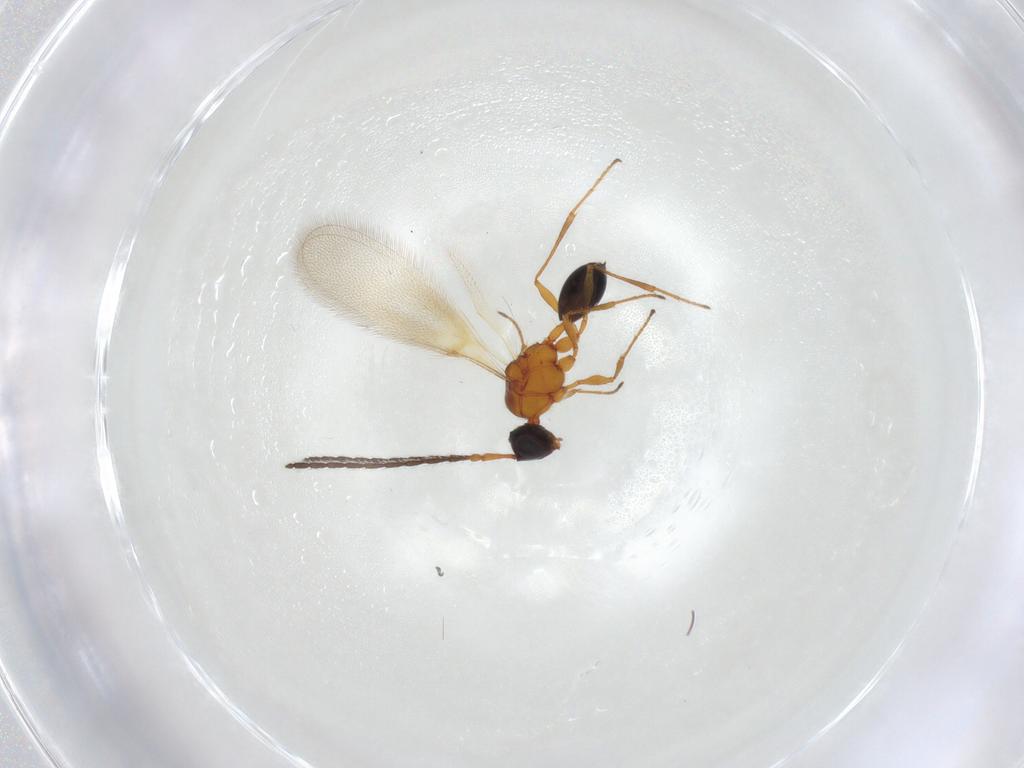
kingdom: Animalia
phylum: Arthropoda
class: Insecta
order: Hymenoptera
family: Diapriidae
